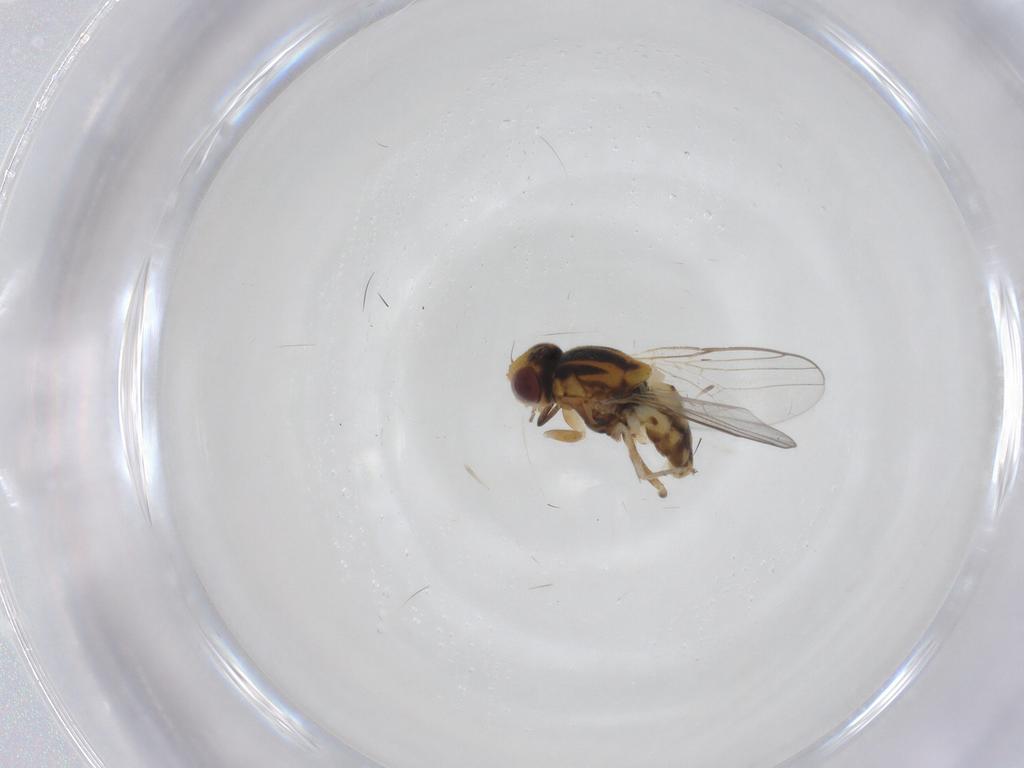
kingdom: Animalia
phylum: Arthropoda
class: Insecta
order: Diptera
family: Chloropidae
